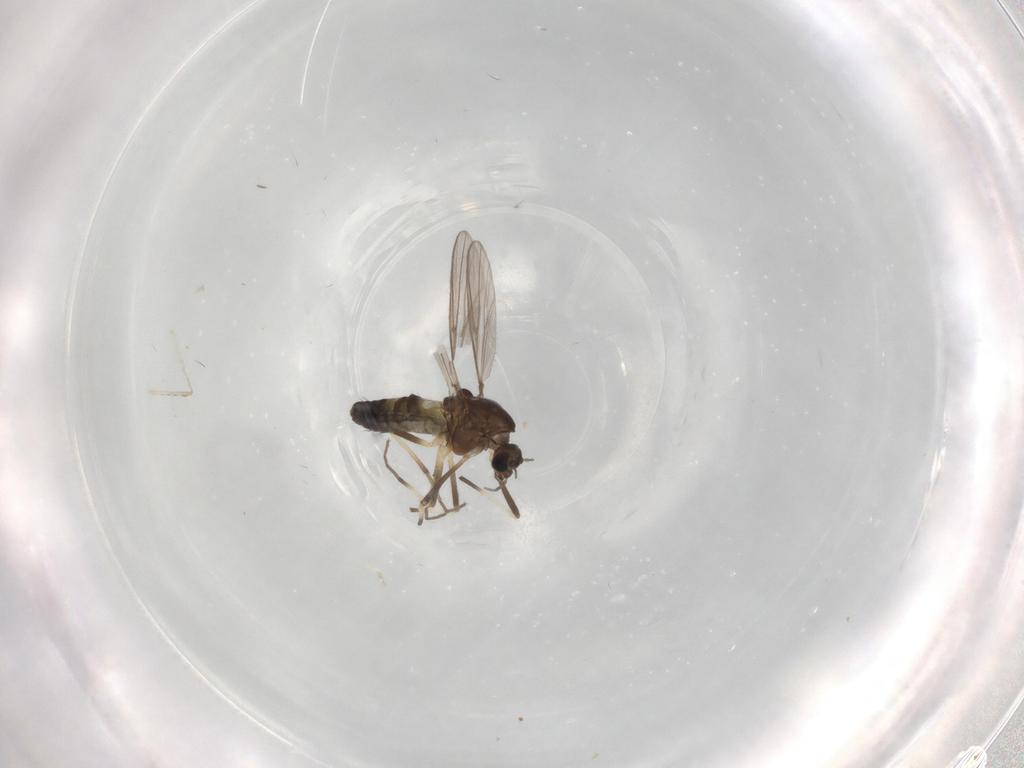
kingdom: Animalia
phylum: Arthropoda
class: Insecta
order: Diptera
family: Chironomidae
